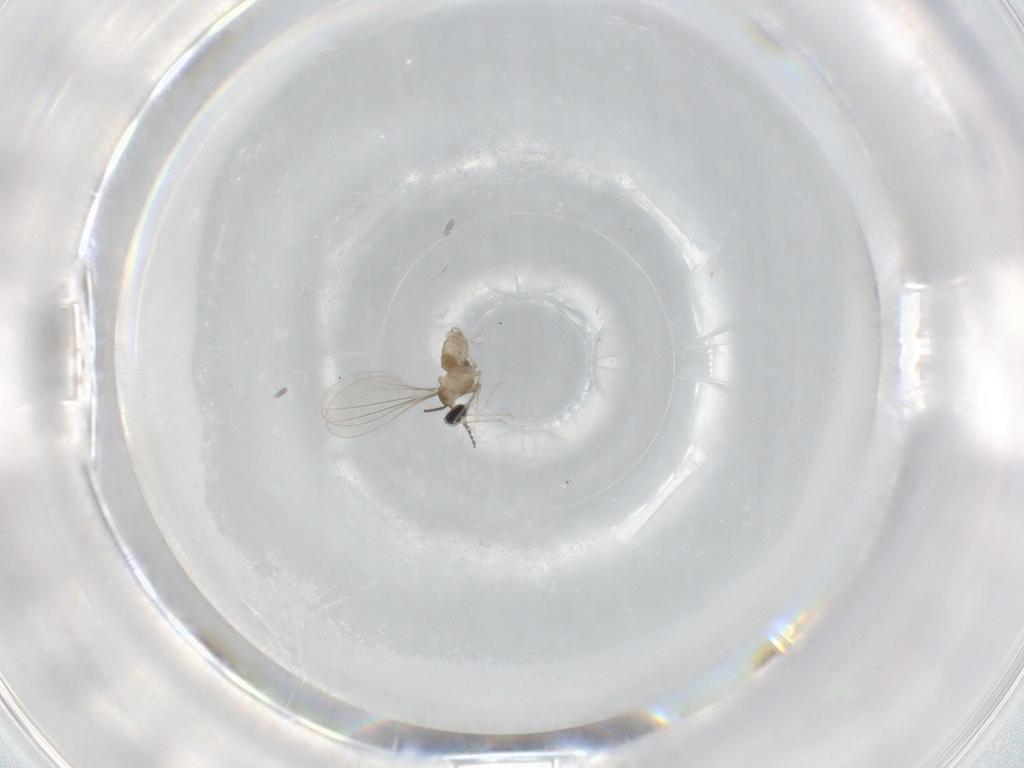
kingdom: Animalia
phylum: Arthropoda
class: Insecta
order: Diptera
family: Cecidomyiidae
